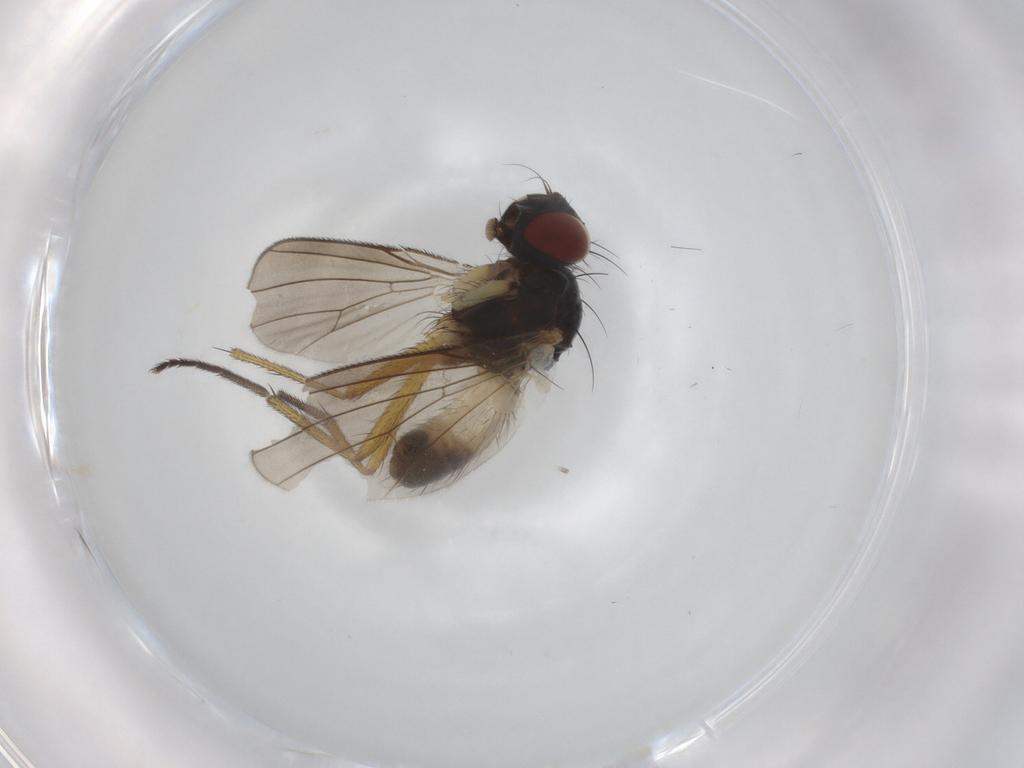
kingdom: Animalia
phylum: Arthropoda
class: Insecta
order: Diptera
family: Muscidae
